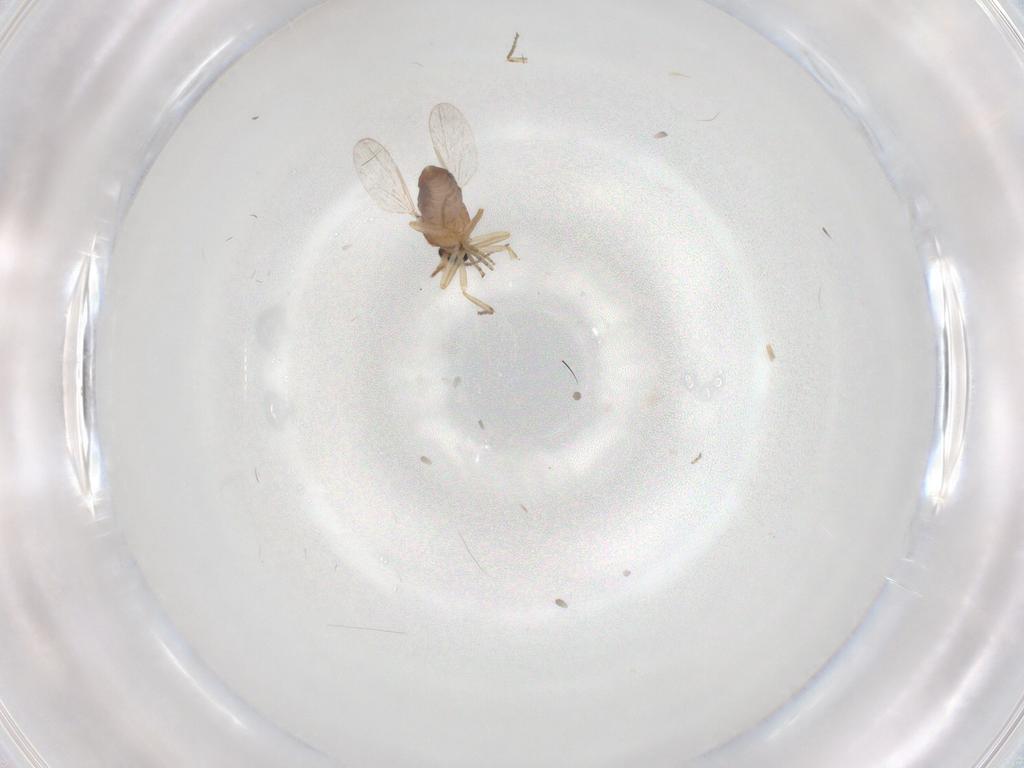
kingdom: Animalia
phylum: Arthropoda
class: Insecta
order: Diptera
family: Ceratopogonidae
